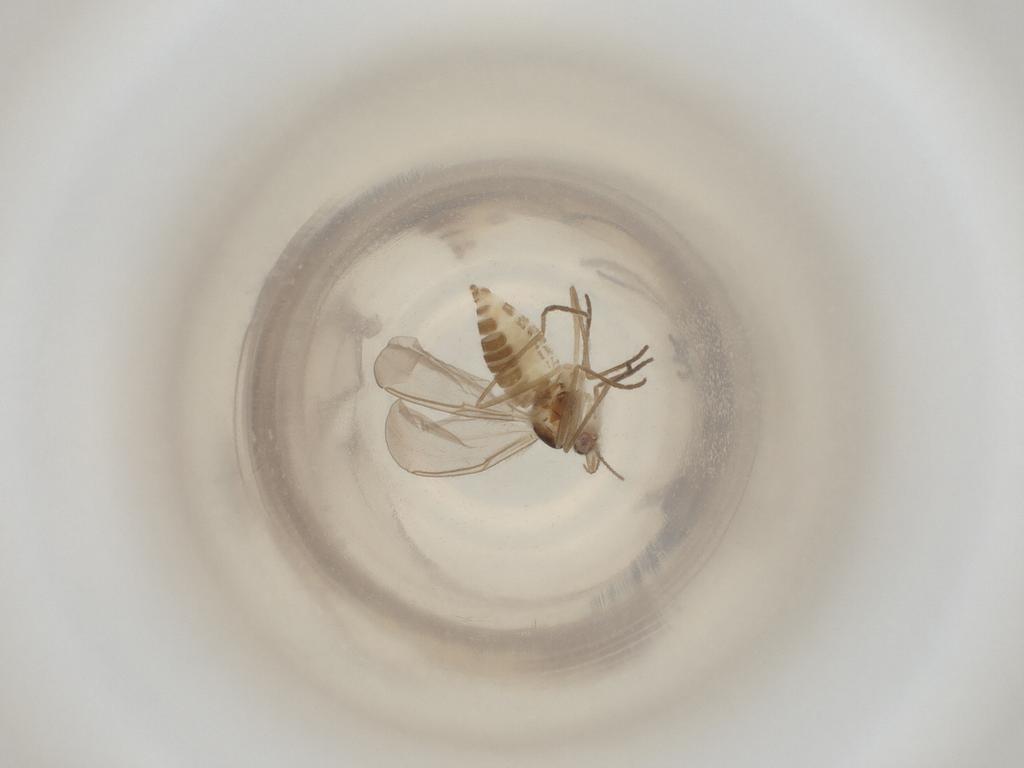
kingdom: Animalia
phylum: Arthropoda
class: Insecta
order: Diptera
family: Cecidomyiidae
